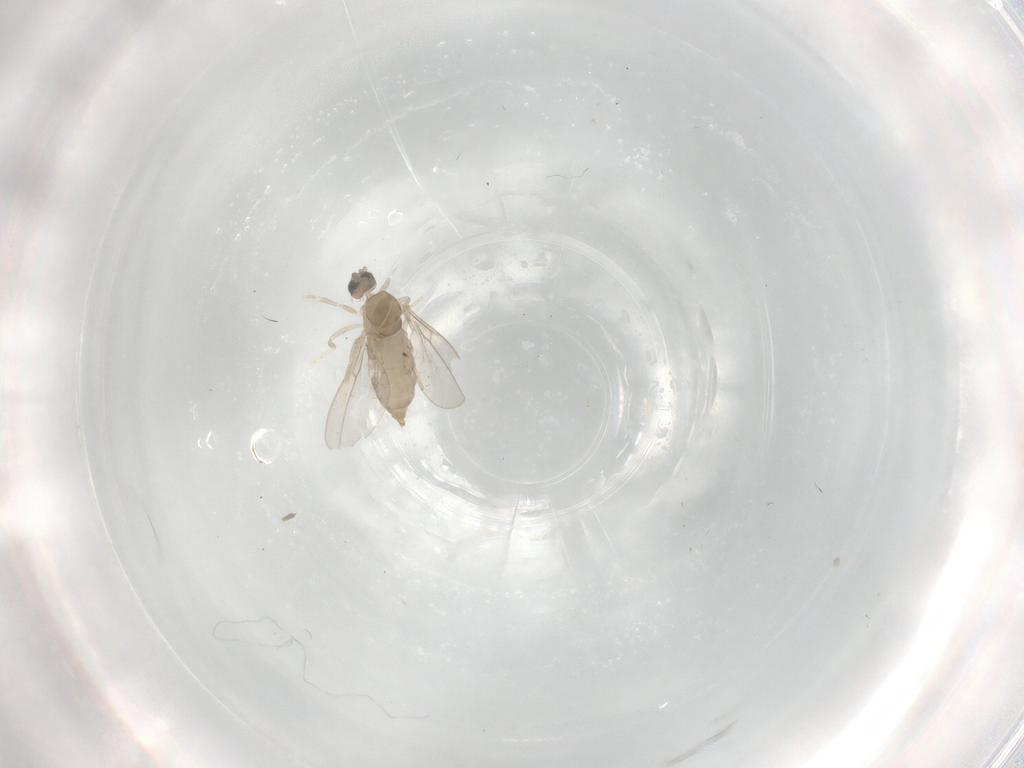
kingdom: Animalia
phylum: Arthropoda
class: Insecta
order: Diptera
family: Cecidomyiidae
